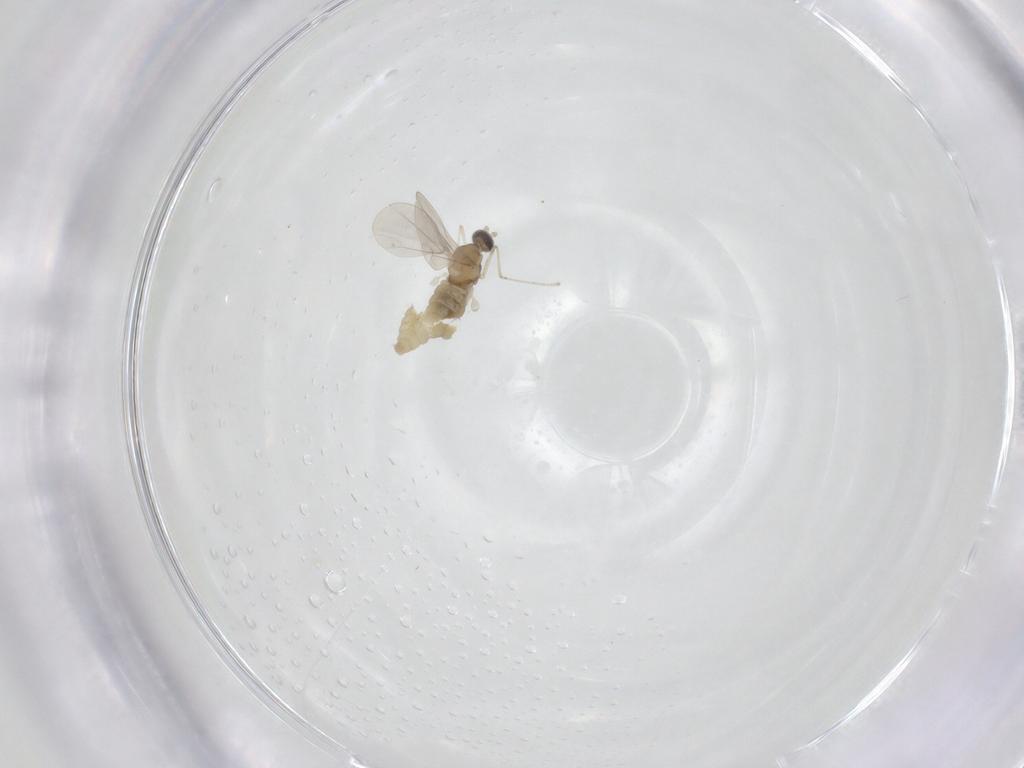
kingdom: Animalia
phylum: Arthropoda
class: Insecta
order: Diptera
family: Cecidomyiidae
